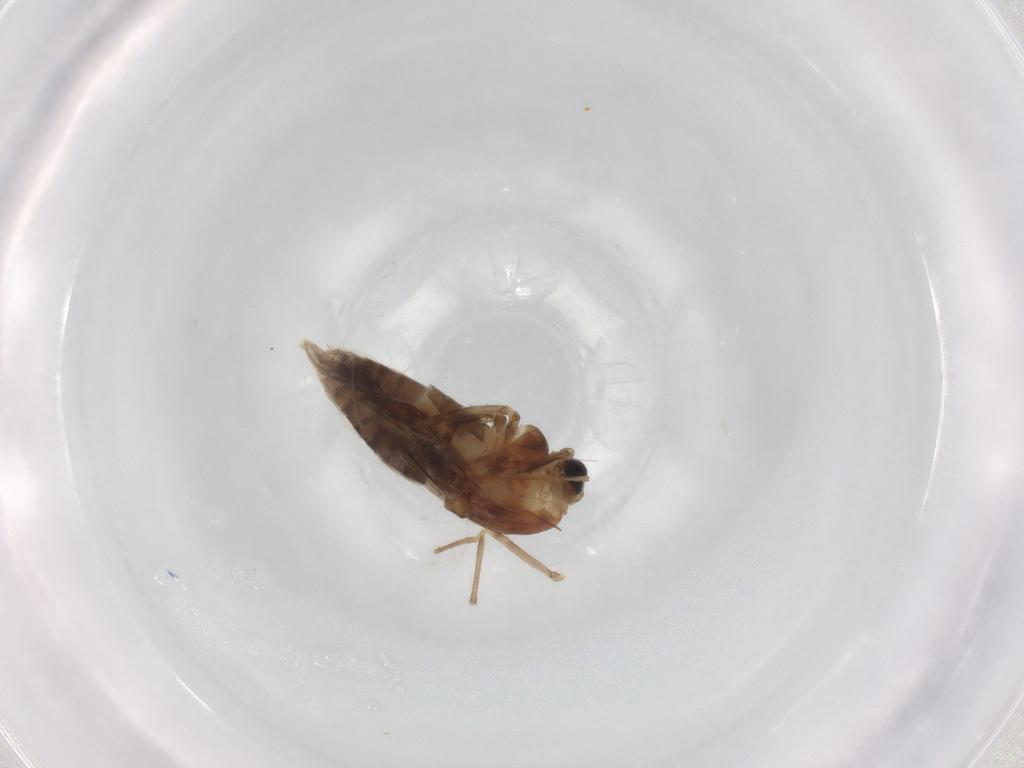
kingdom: Animalia
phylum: Arthropoda
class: Insecta
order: Diptera
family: Chironomidae
